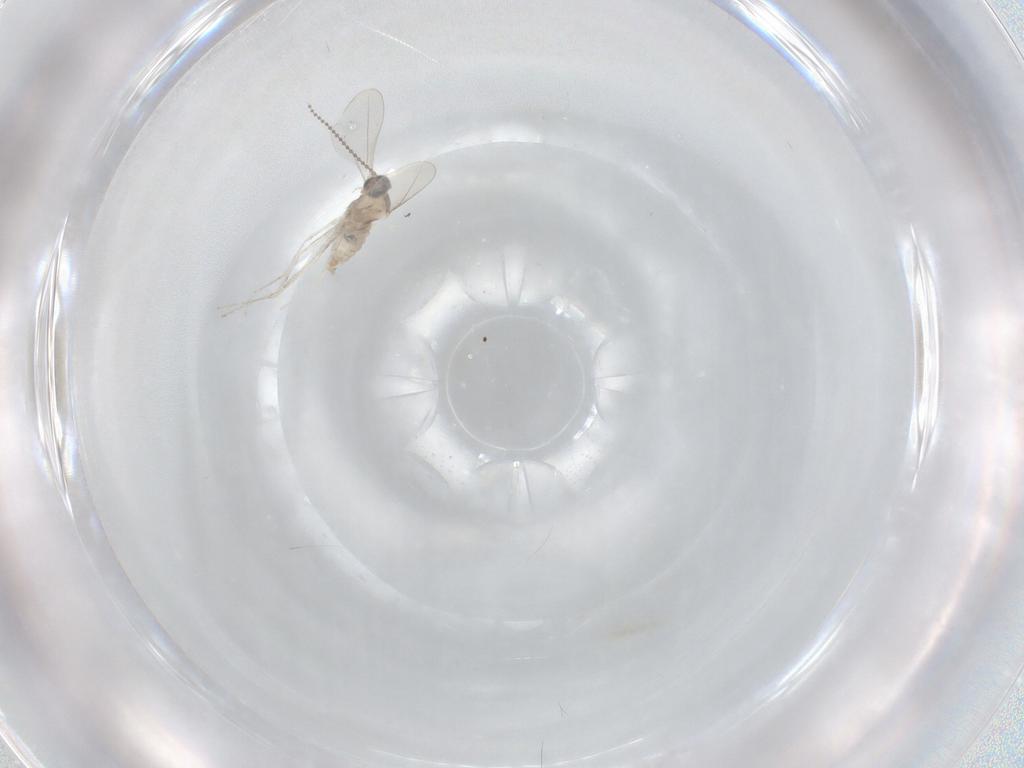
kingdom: Animalia
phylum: Arthropoda
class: Insecta
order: Diptera
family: Cecidomyiidae
